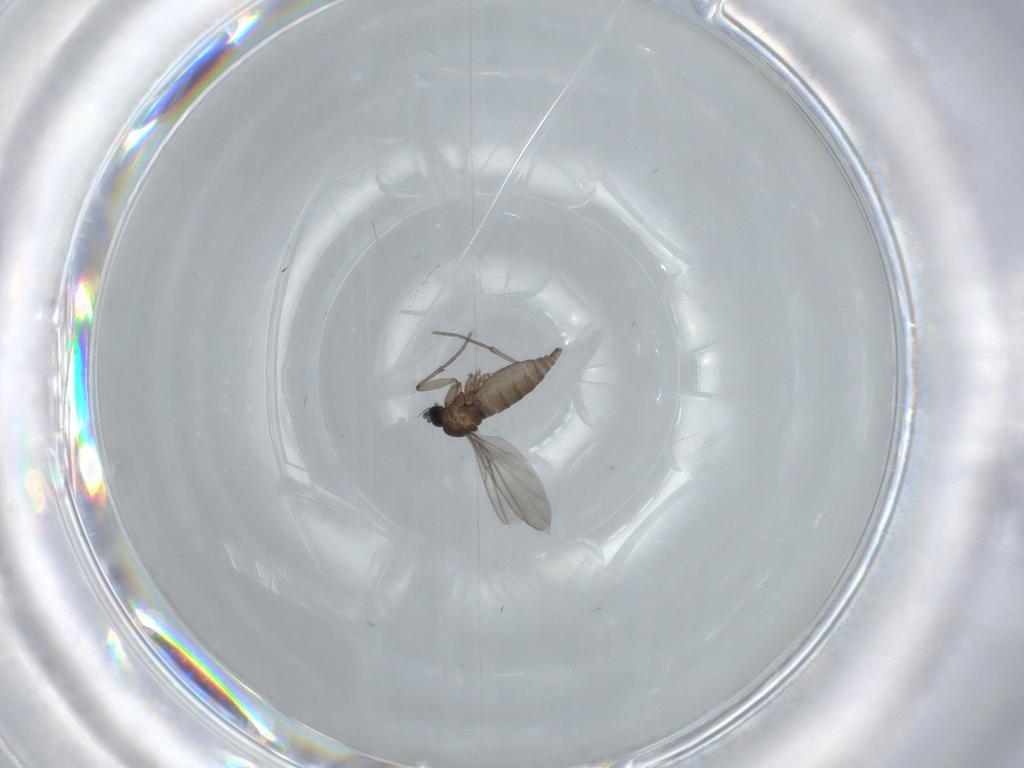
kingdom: Animalia
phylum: Arthropoda
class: Insecta
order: Diptera
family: Sciaridae
